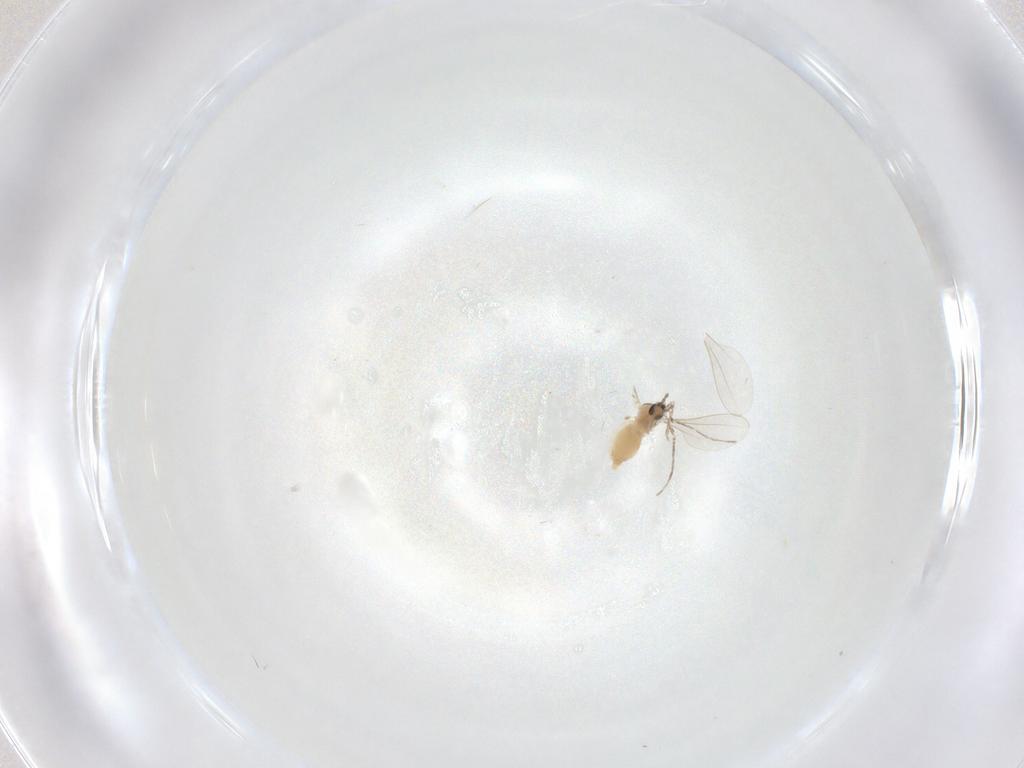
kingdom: Animalia
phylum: Arthropoda
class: Insecta
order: Diptera
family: Cecidomyiidae
